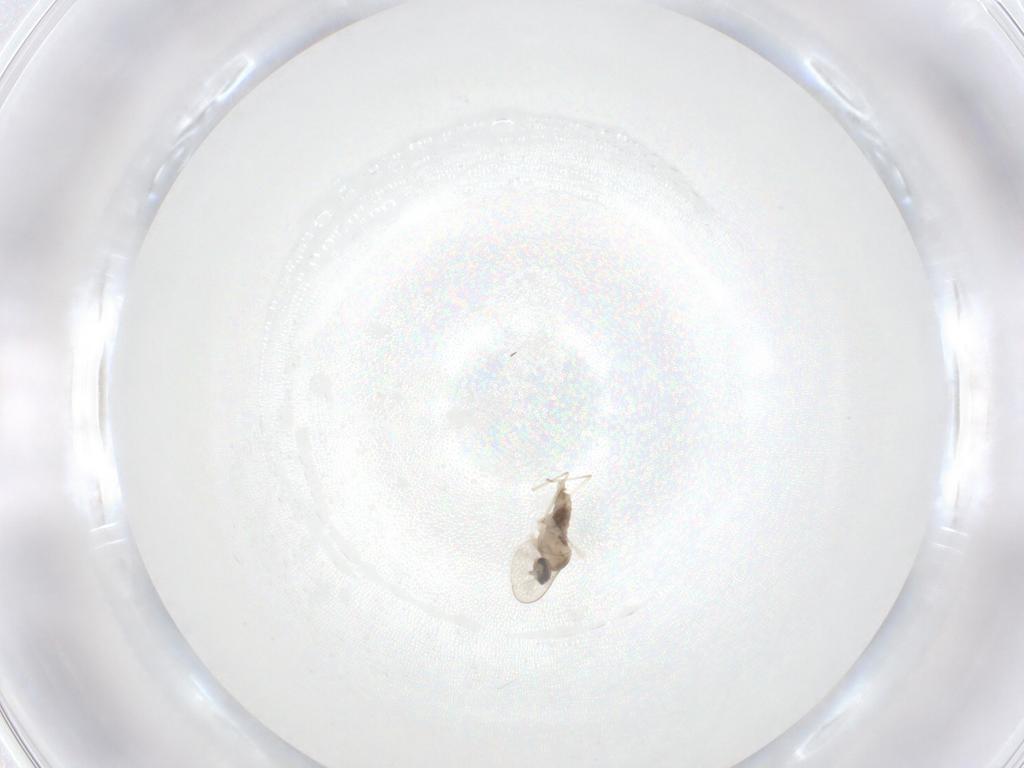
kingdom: Animalia
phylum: Arthropoda
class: Insecta
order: Diptera
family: Cecidomyiidae
